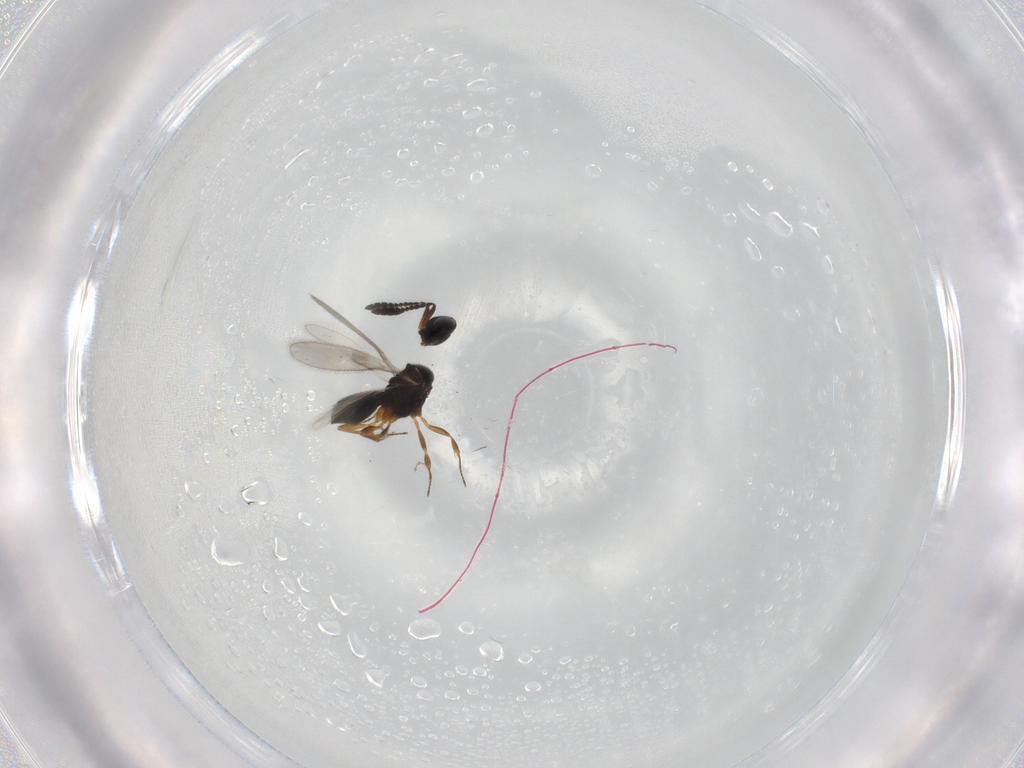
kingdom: Animalia
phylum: Arthropoda
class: Insecta
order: Hymenoptera
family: Scelionidae
